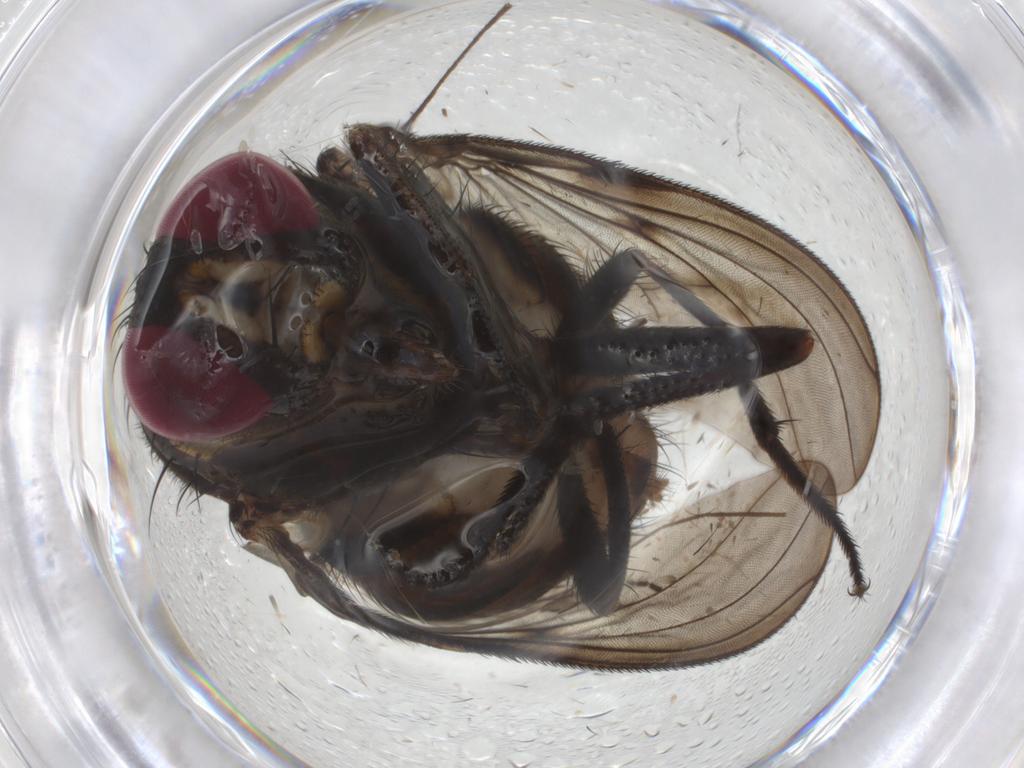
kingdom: Animalia
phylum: Arthropoda
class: Insecta
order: Diptera
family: Muscidae
